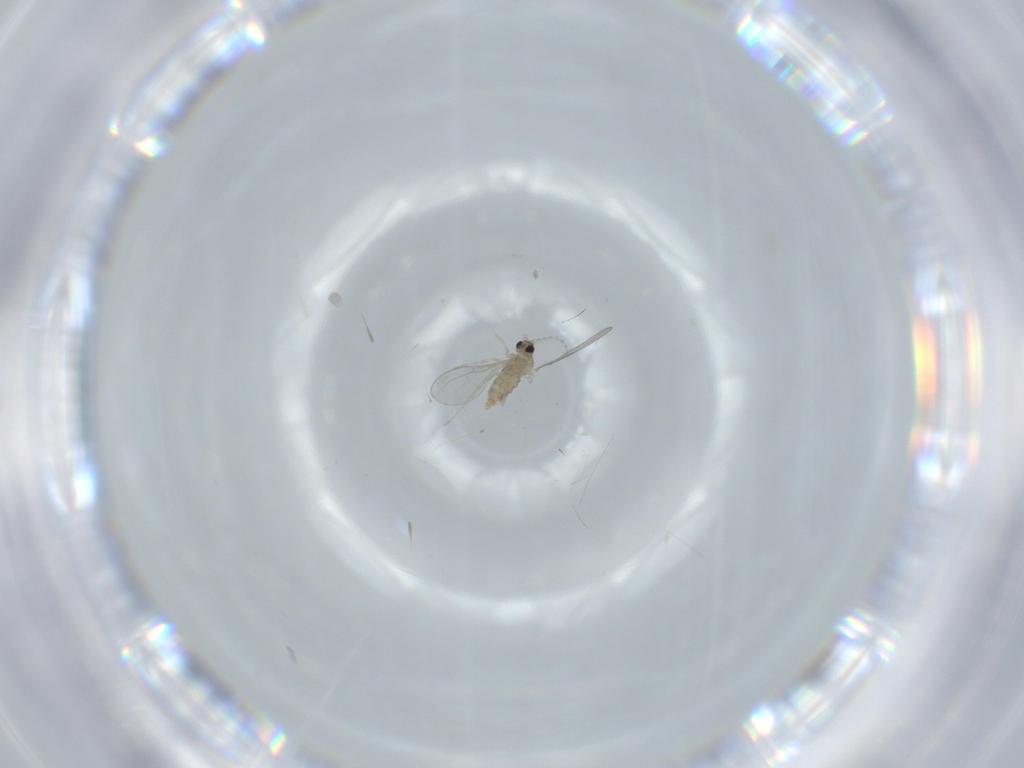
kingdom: Animalia
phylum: Arthropoda
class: Insecta
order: Diptera
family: Cecidomyiidae
